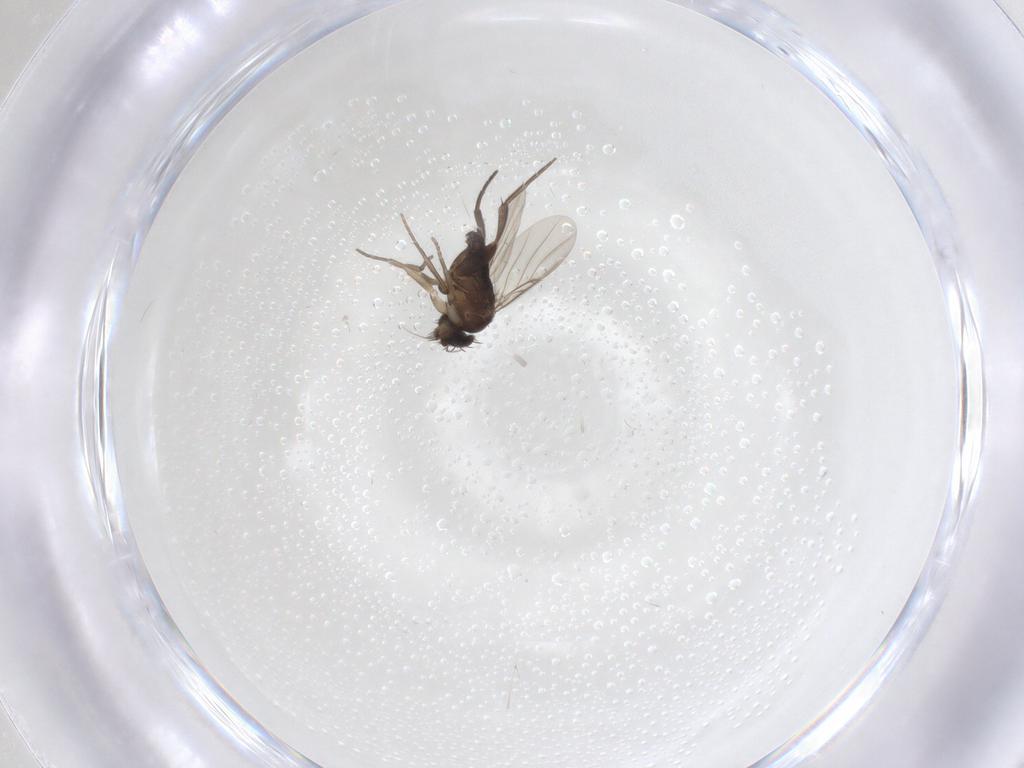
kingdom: Animalia
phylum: Arthropoda
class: Insecta
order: Diptera
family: Phoridae
